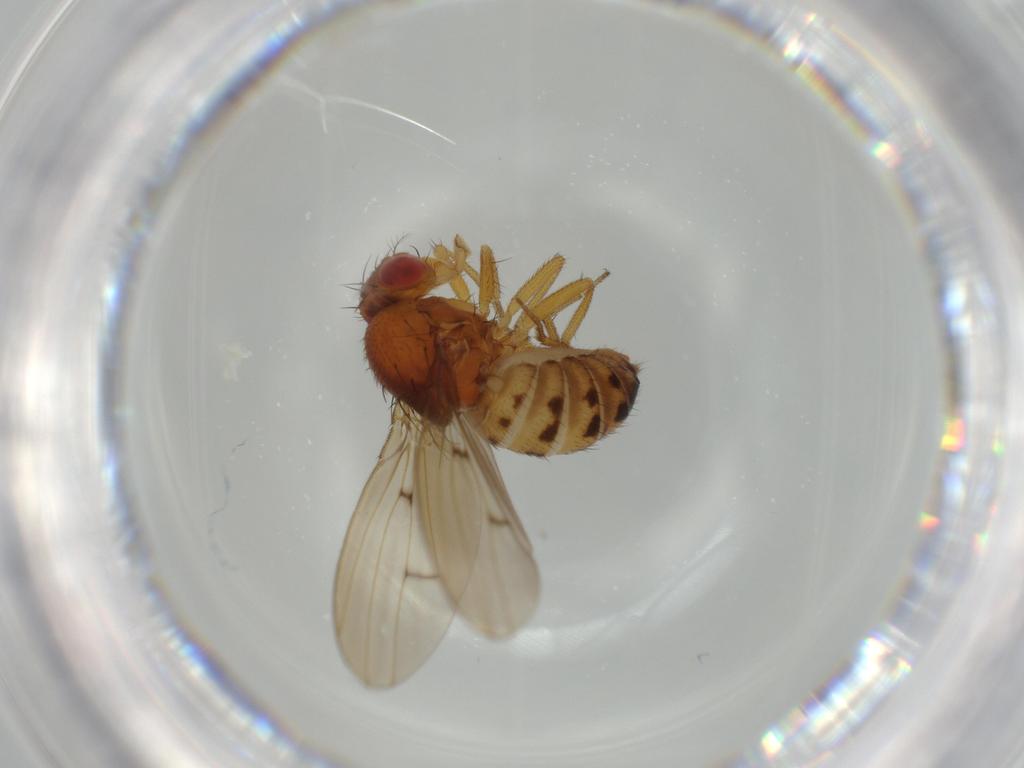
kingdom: Animalia
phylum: Arthropoda
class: Insecta
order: Diptera
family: Drosophilidae
